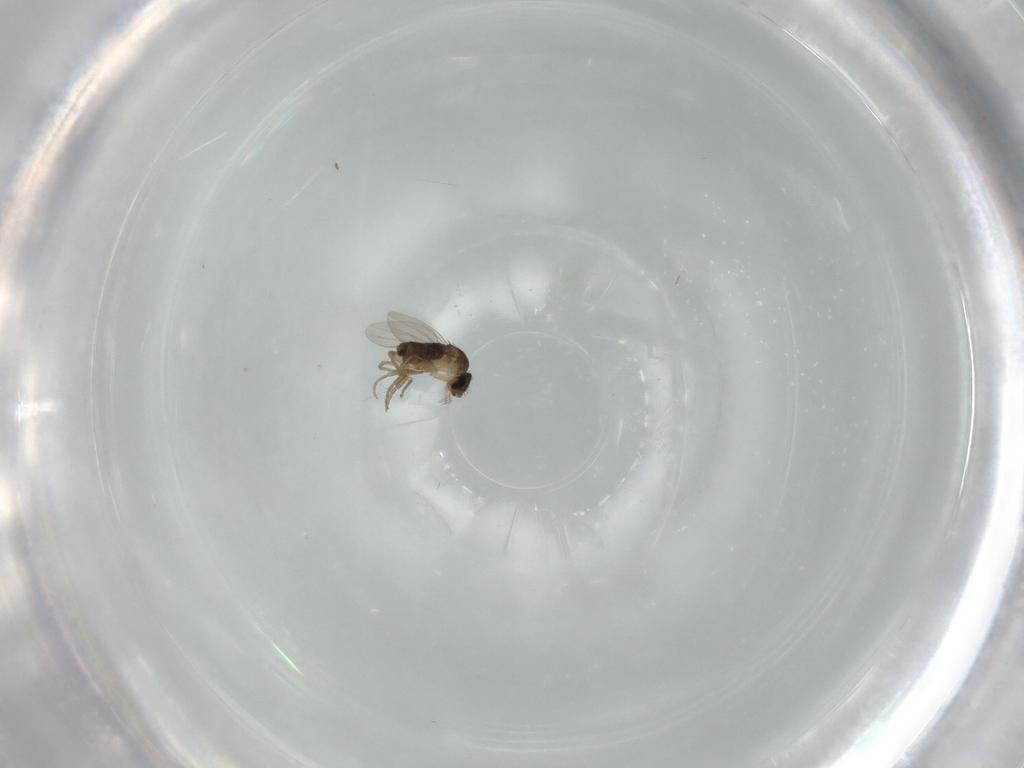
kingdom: Animalia
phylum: Arthropoda
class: Insecta
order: Diptera
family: Phoridae
